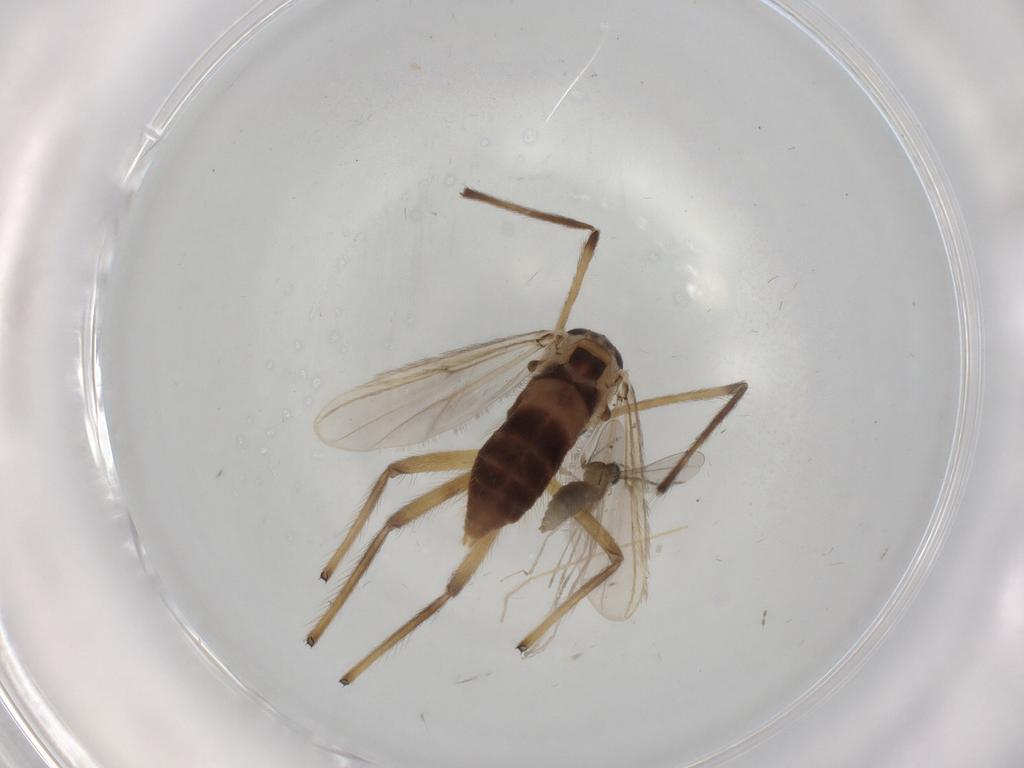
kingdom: Animalia
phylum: Arthropoda
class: Insecta
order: Diptera
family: Chironomidae
